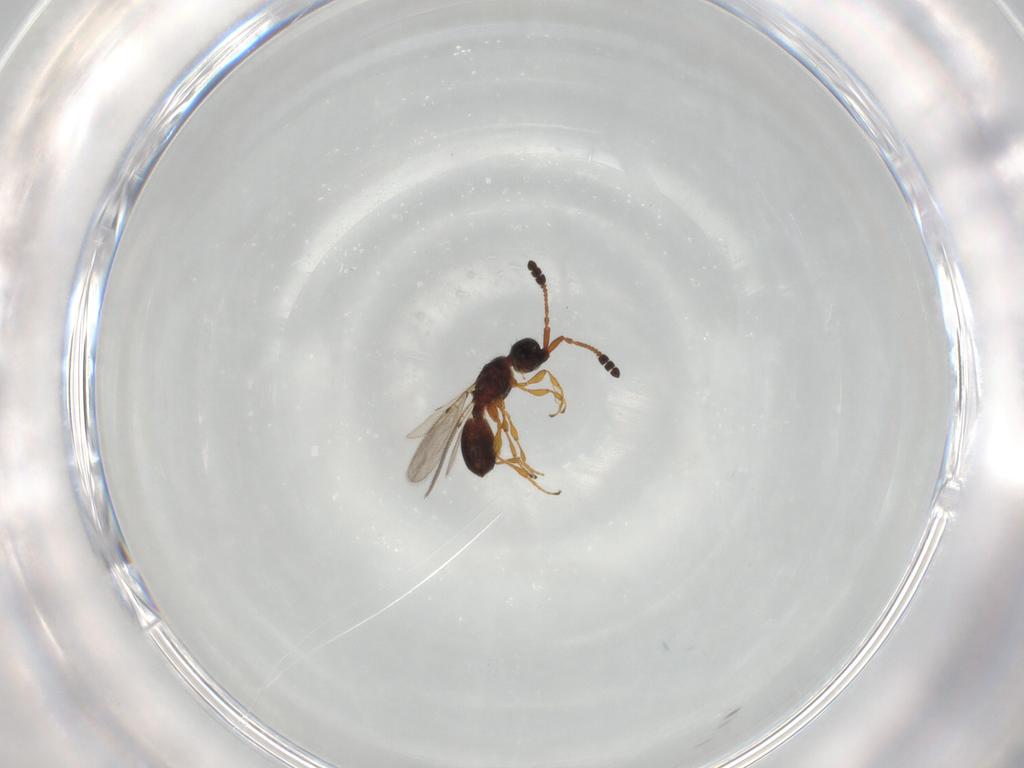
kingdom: Animalia
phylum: Arthropoda
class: Insecta
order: Hymenoptera
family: Diapriidae
